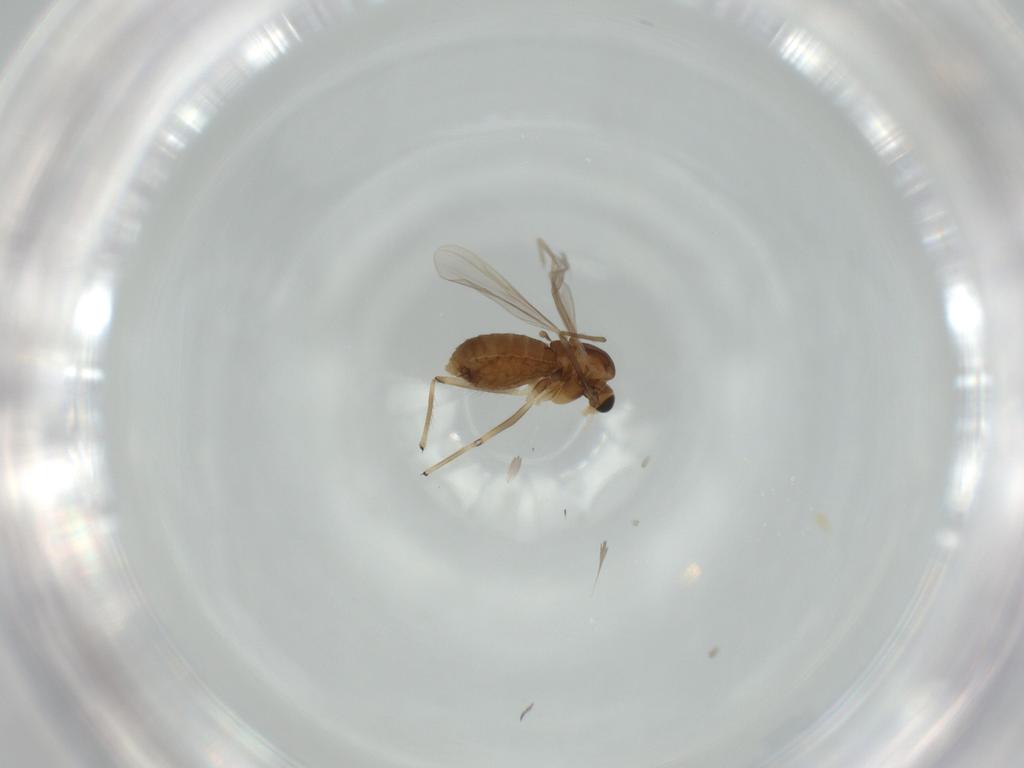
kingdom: Animalia
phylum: Arthropoda
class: Insecta
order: Diptera
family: Chironomidae
